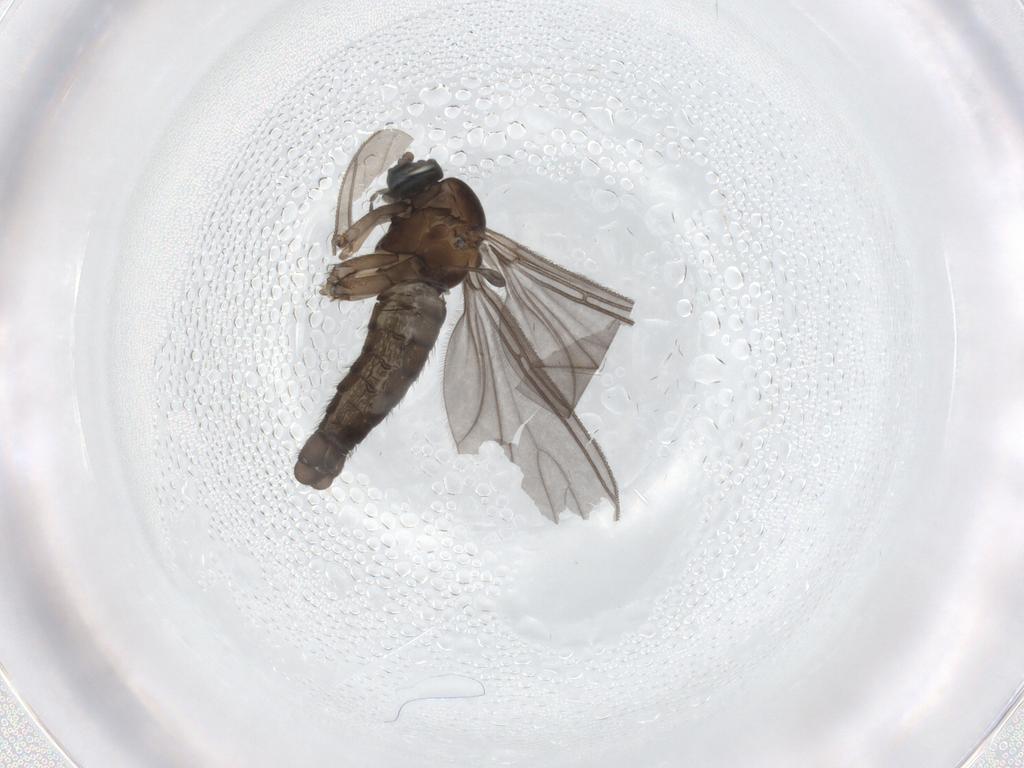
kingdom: Animalia
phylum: Arthropoda
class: Insecta
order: Diptera
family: Sciaridae
